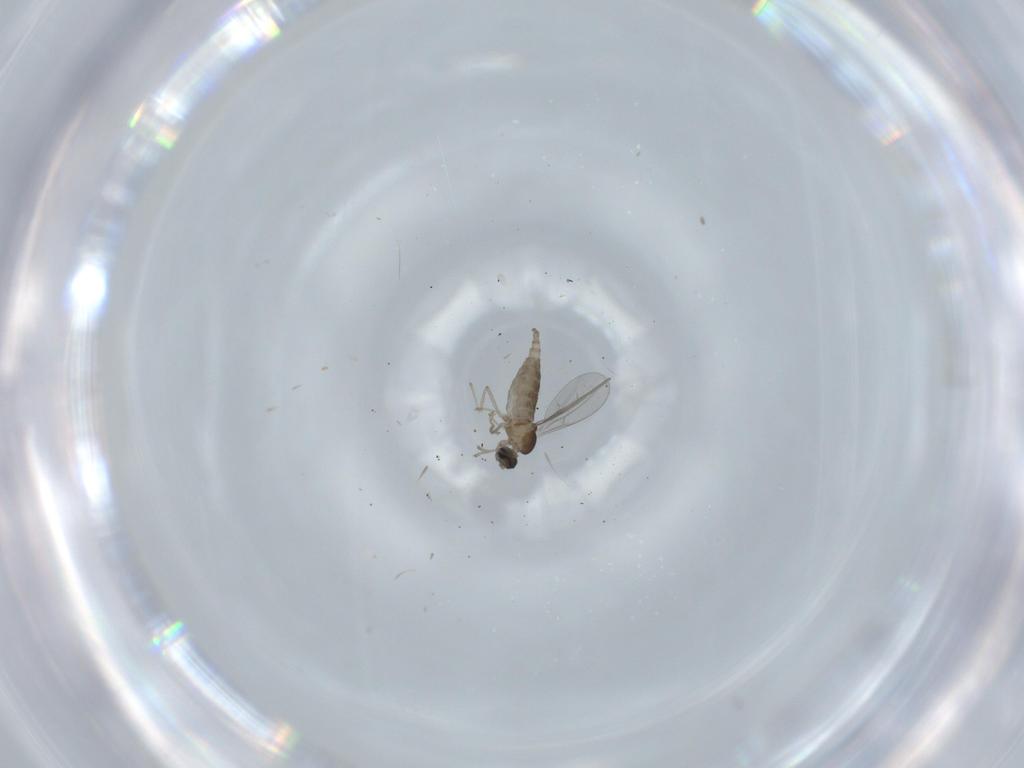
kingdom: Animalia
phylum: Arthropoda
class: Insecta
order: Diptera
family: Cecidomyiidae
